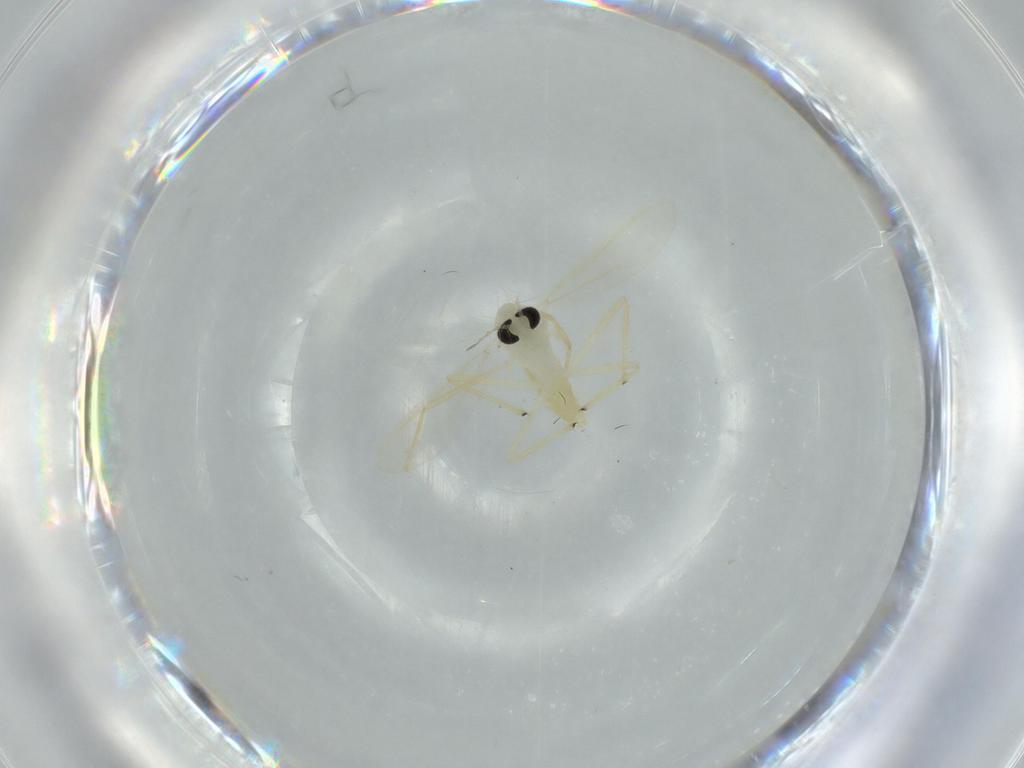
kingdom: Animalia
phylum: Arthropoda
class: Insecta
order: Diptera
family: Chironomidae
